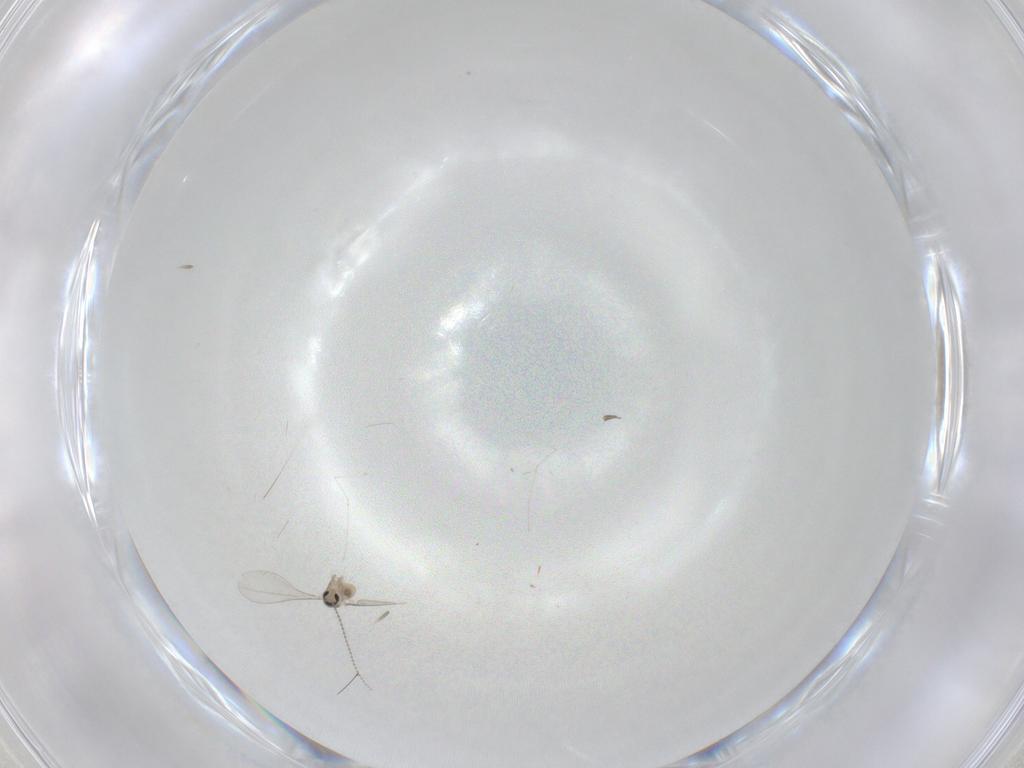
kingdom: Animalia
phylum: Arthropoda
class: Insecta
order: Diptera
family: Cecidomyiidae
